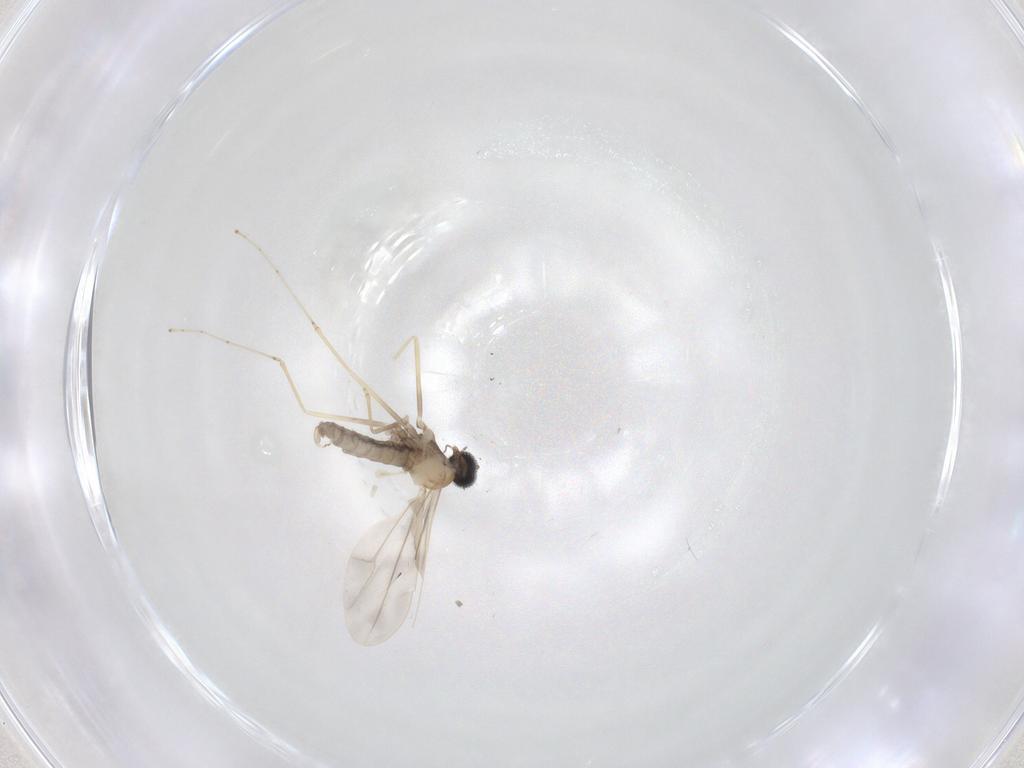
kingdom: Animalia
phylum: Arthropoda
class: Insecta
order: Diptera
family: Cecidomyiidae
